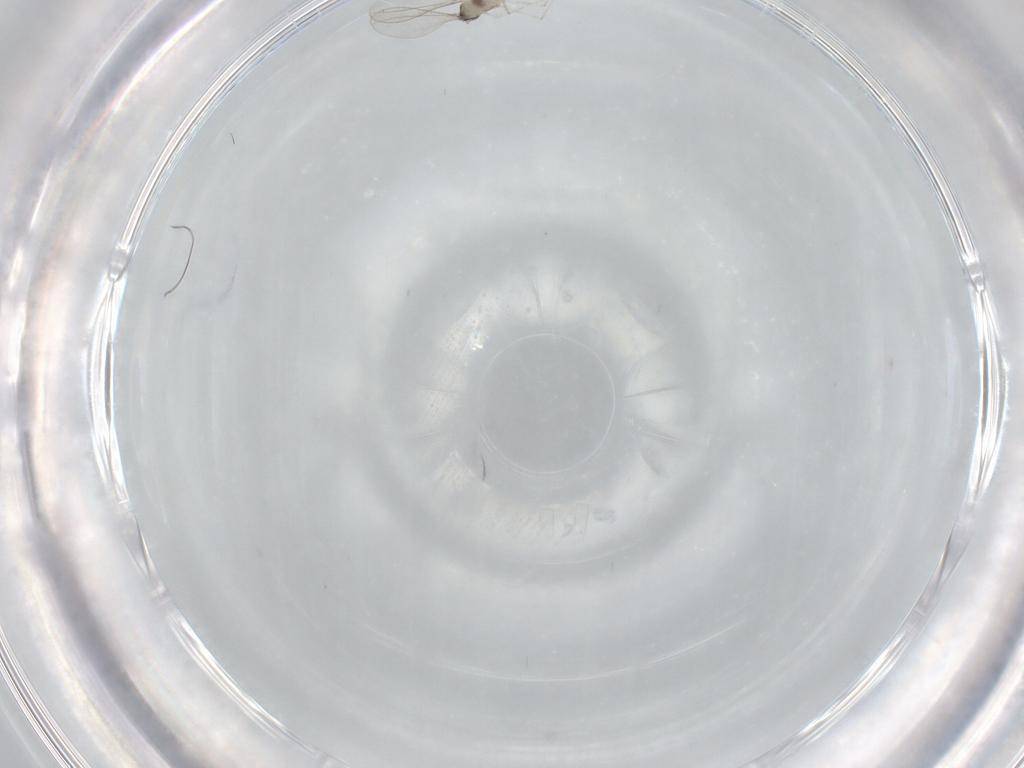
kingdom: Animalia
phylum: Arthropoda
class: Insecta
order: Diptera
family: Cecidomyiidae
